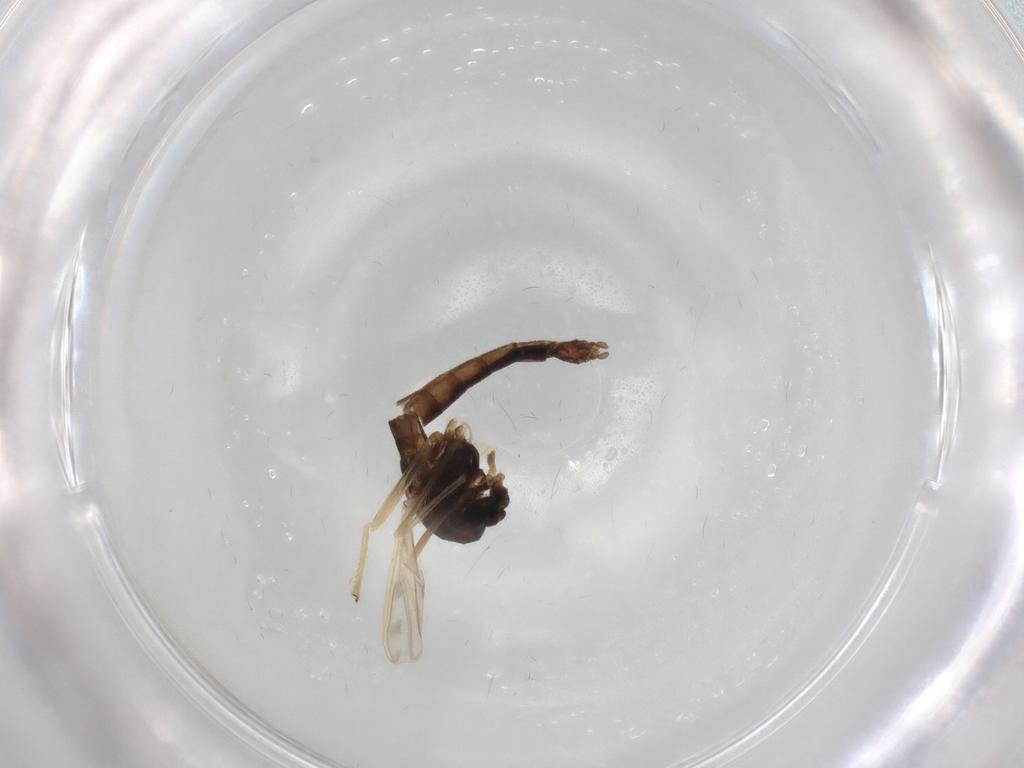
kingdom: Animalia
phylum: Arthropoda
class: Insecta
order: Diptera
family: Chironomidae
